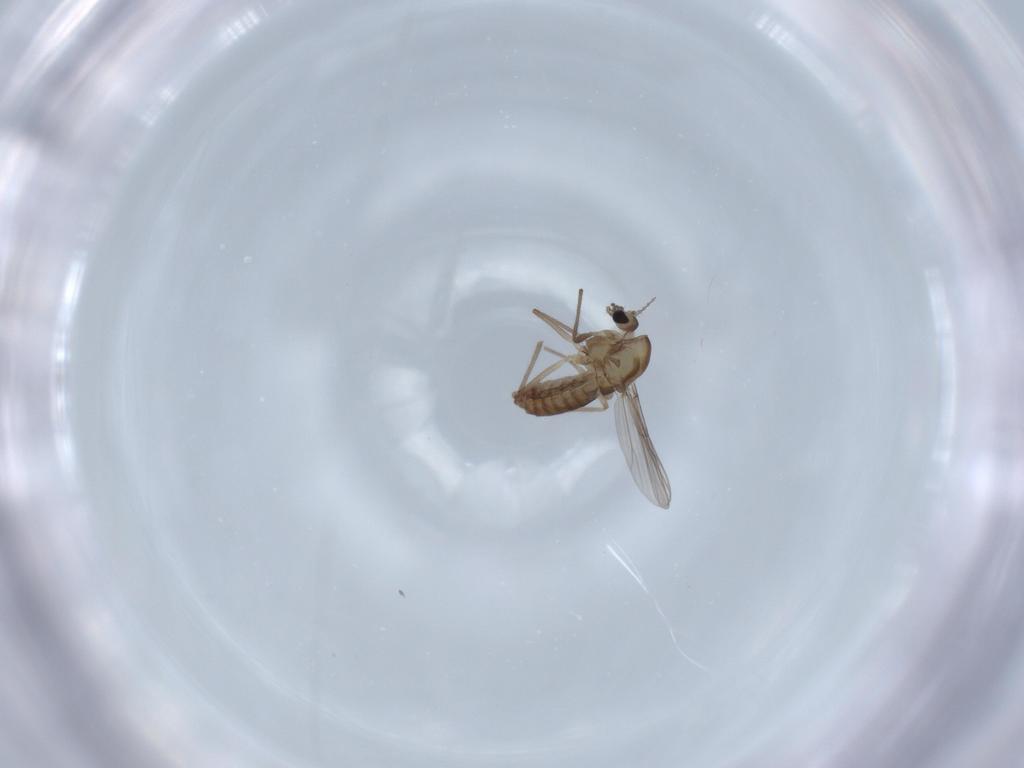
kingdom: Animalia
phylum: Arthropoda
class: Insecta
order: Diptera
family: Chironomidae
